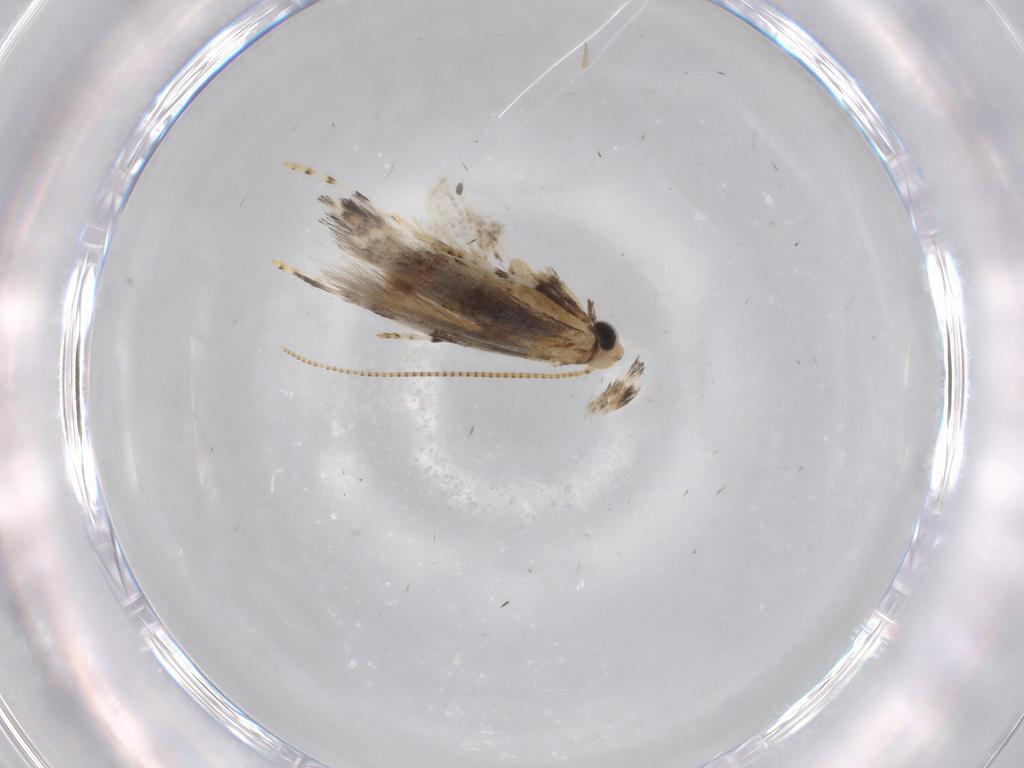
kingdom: Animalia
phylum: Arthropoda
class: Insecta
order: Lepidoptera
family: Gracillariidae
